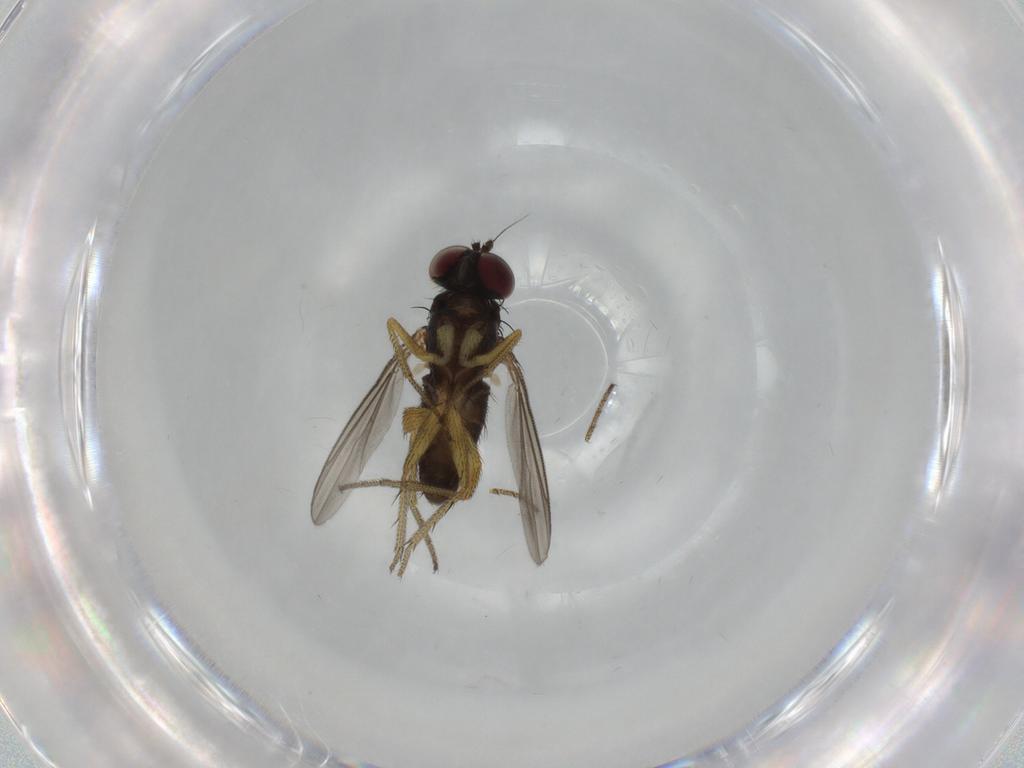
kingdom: Animalia
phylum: Arthropoda
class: Insecta
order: Diptera
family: Dolichopodidae
